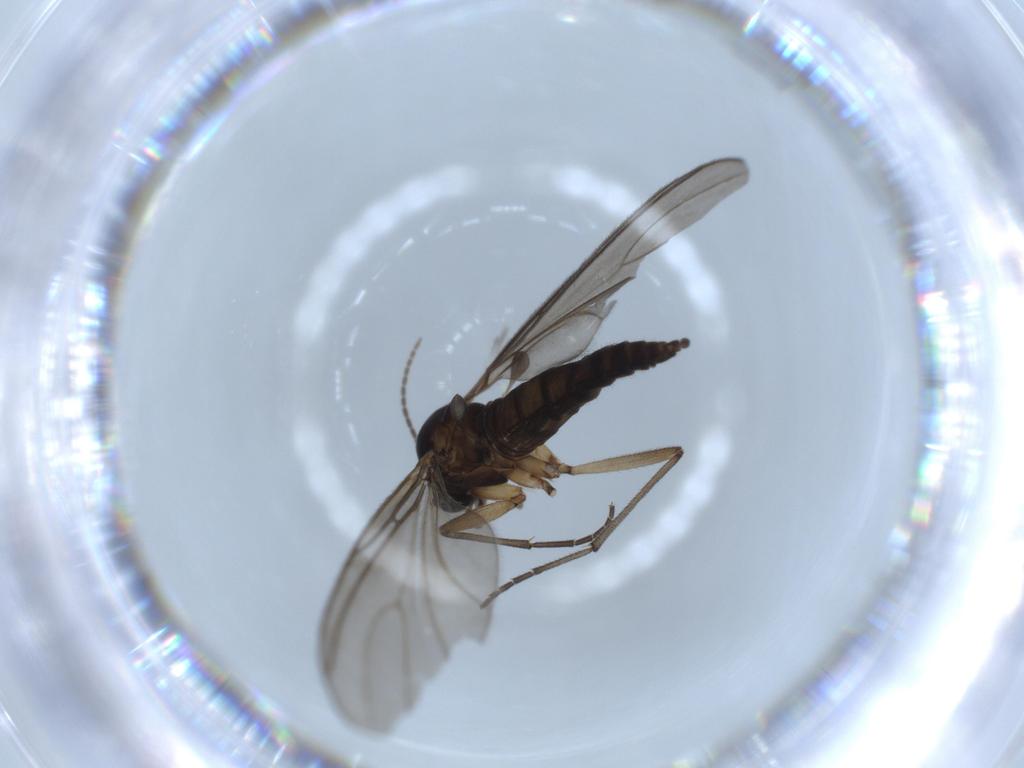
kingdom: Animalia
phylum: Arthropoda
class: Insecta
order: Diptera
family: Sciaridae
